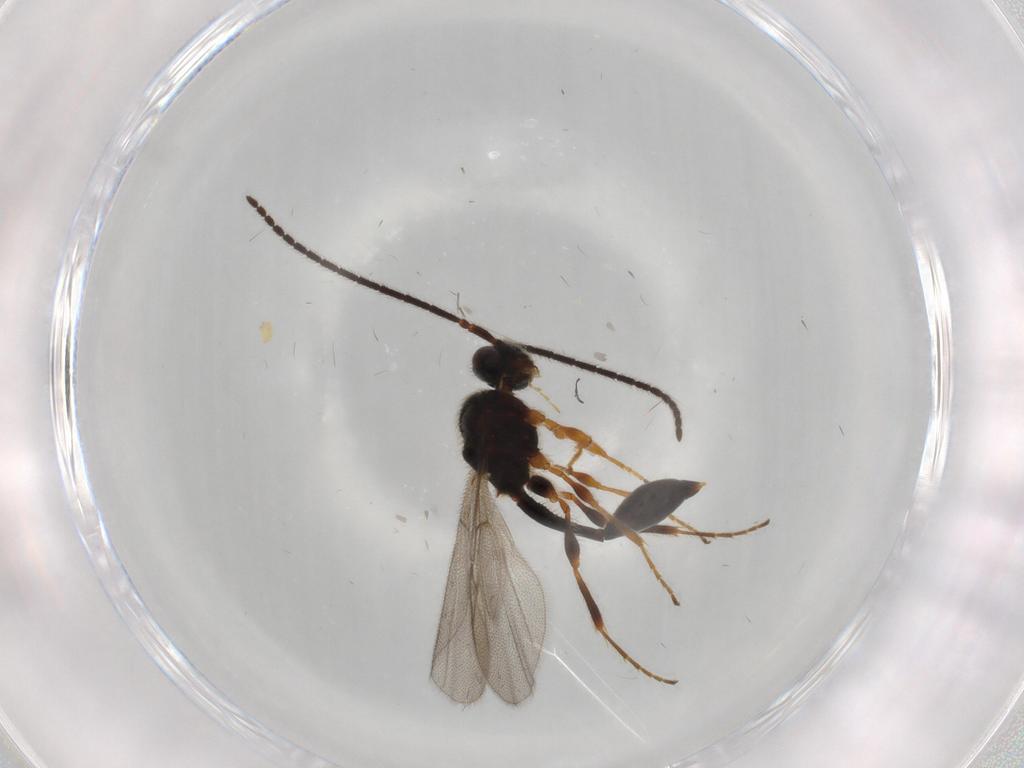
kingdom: Animalia
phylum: Arthropoda
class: Insecta
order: Hymenoptera
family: Diapriidae
